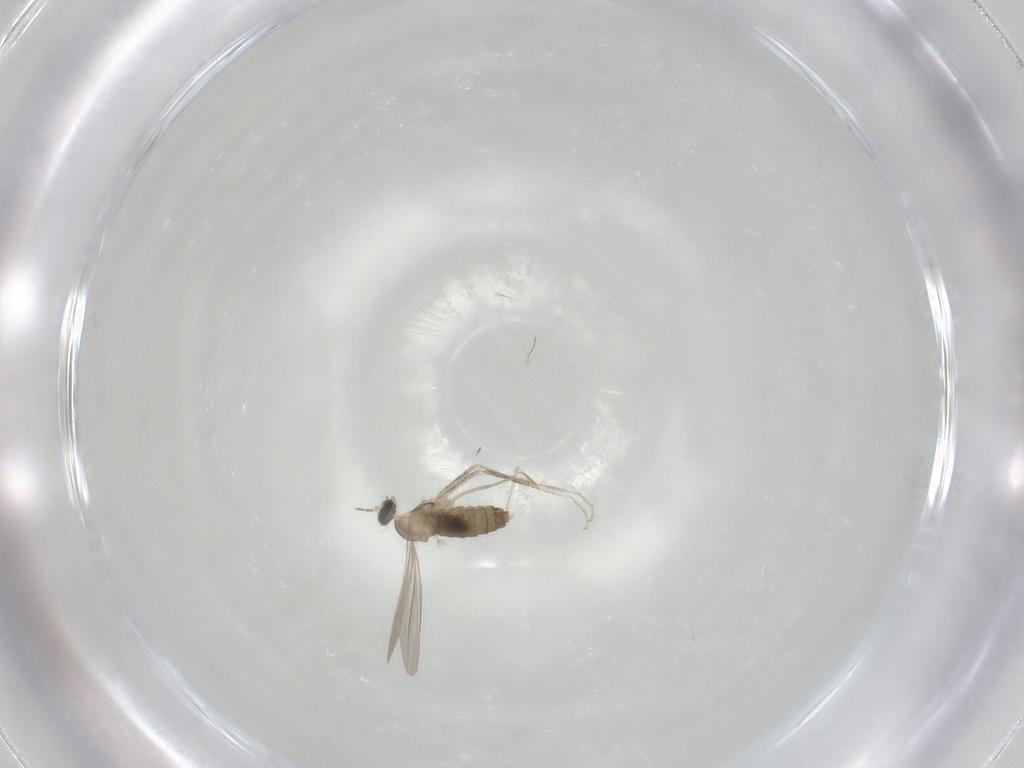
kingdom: Animalia
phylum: Arthropoda
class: Insecta
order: Diptera
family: Cecidomyiidae
